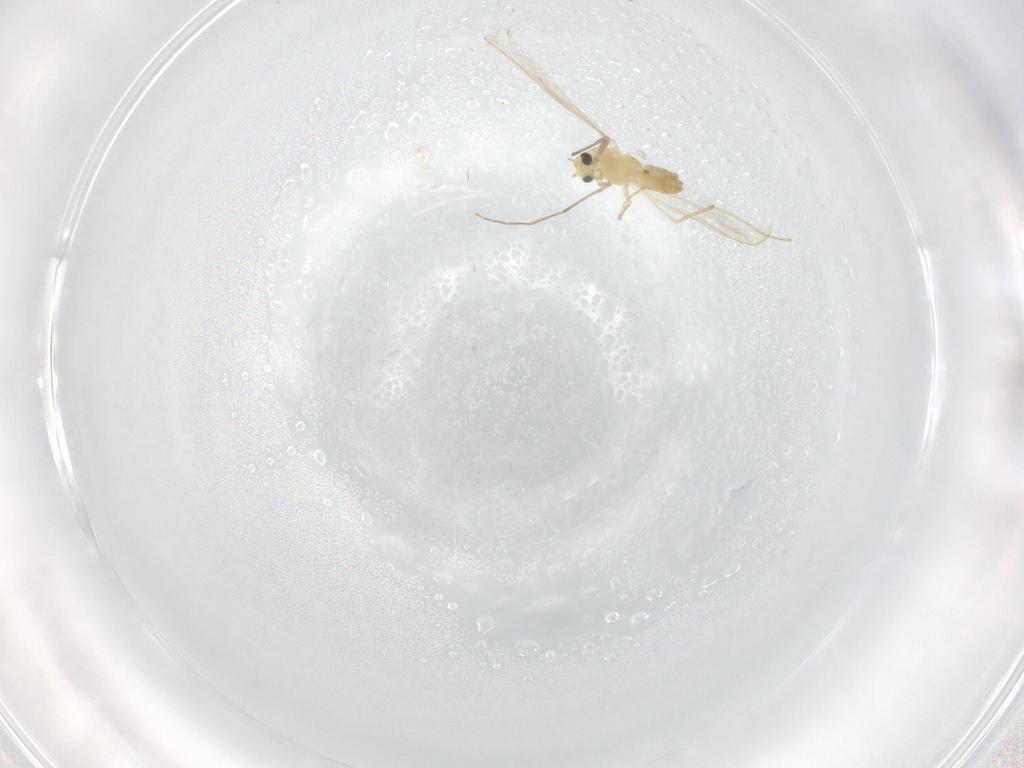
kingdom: Animalia
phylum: Arthropoda
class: Insecta
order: Diptera
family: Chironomidae
